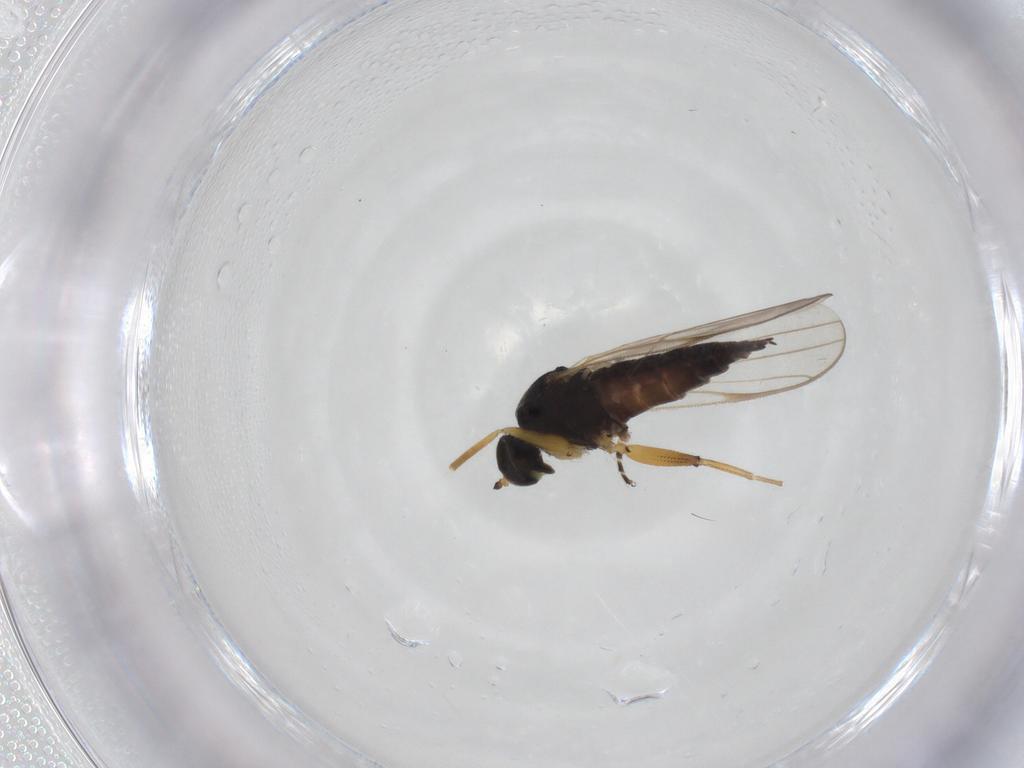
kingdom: Animalia
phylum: Arthropoda
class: Insecta
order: Diptera
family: Hybotidae
